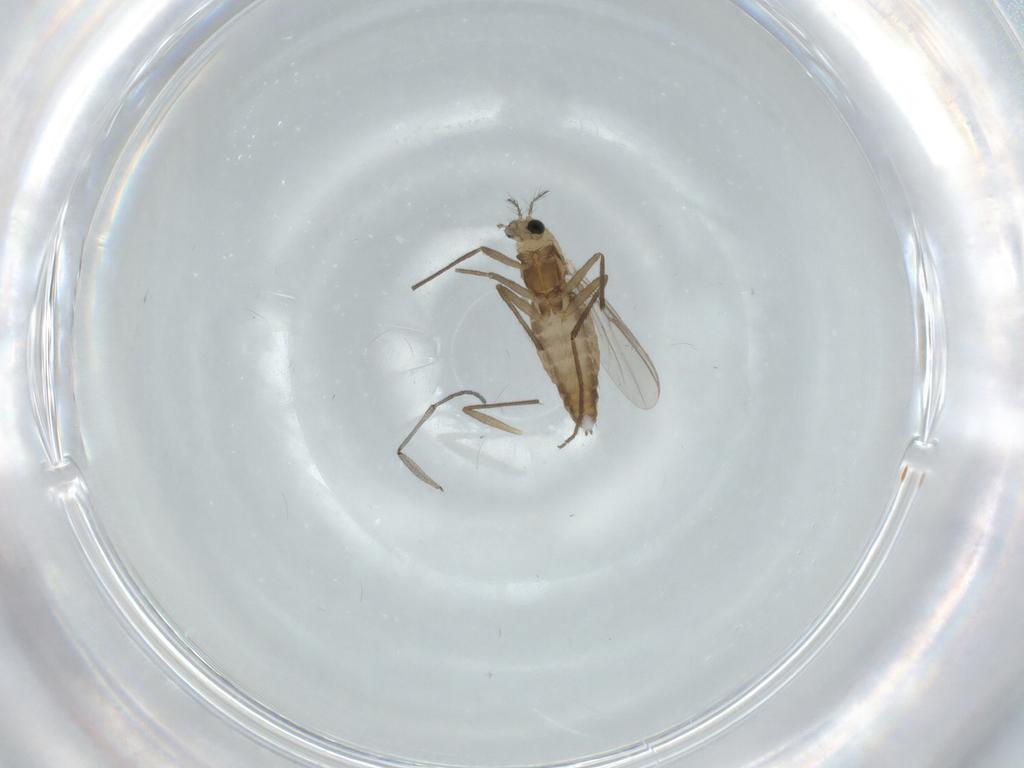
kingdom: Animalia
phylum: Arthropoda
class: Insecta
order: Diptera
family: Chironomidae
